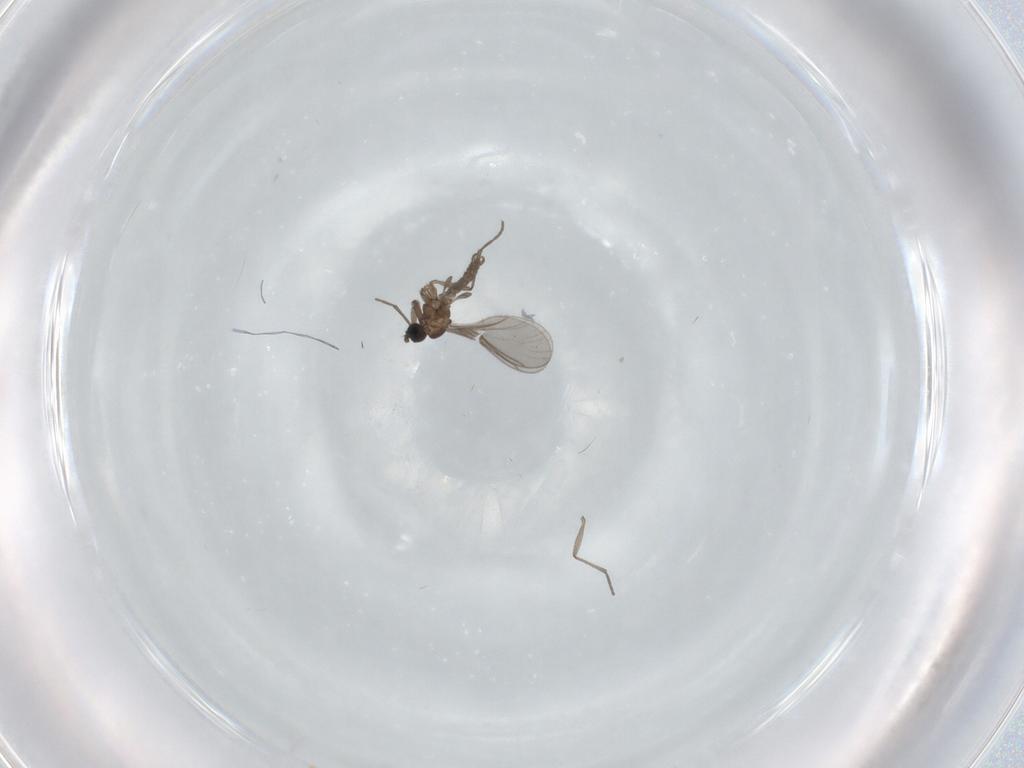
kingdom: Animalia
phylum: Arthropoda
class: Insecta
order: Diptera
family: Sciaridae
